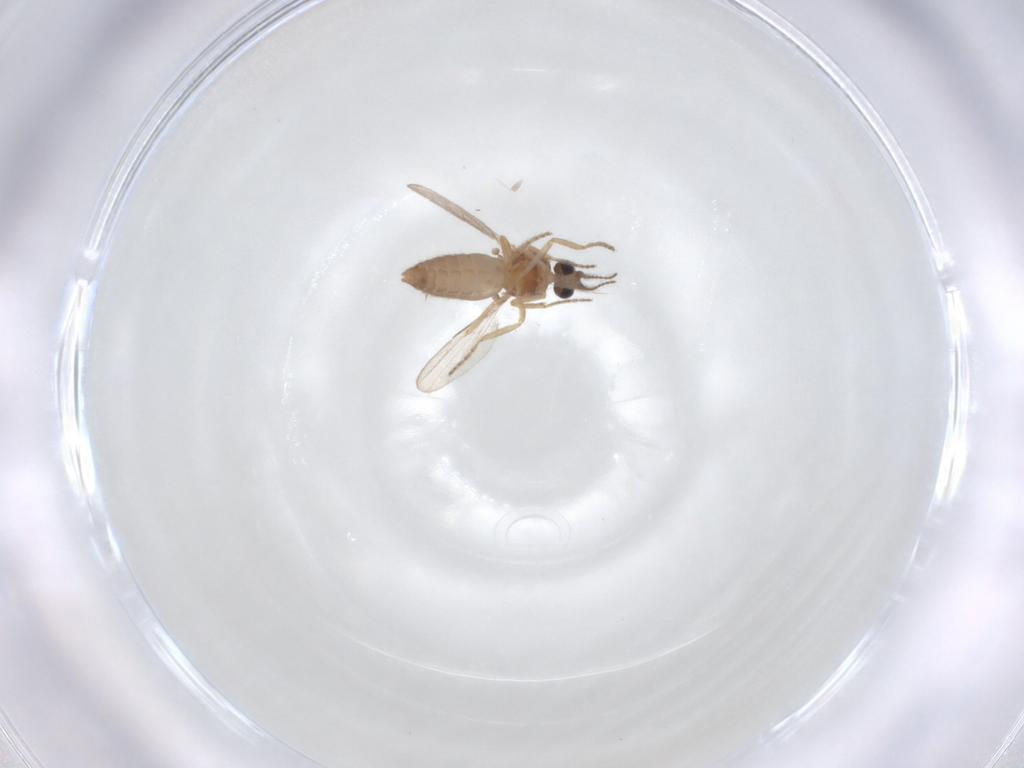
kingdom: Animalia
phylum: Arthropoda
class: Insecta
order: Diptera
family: Ceratopogonidae
